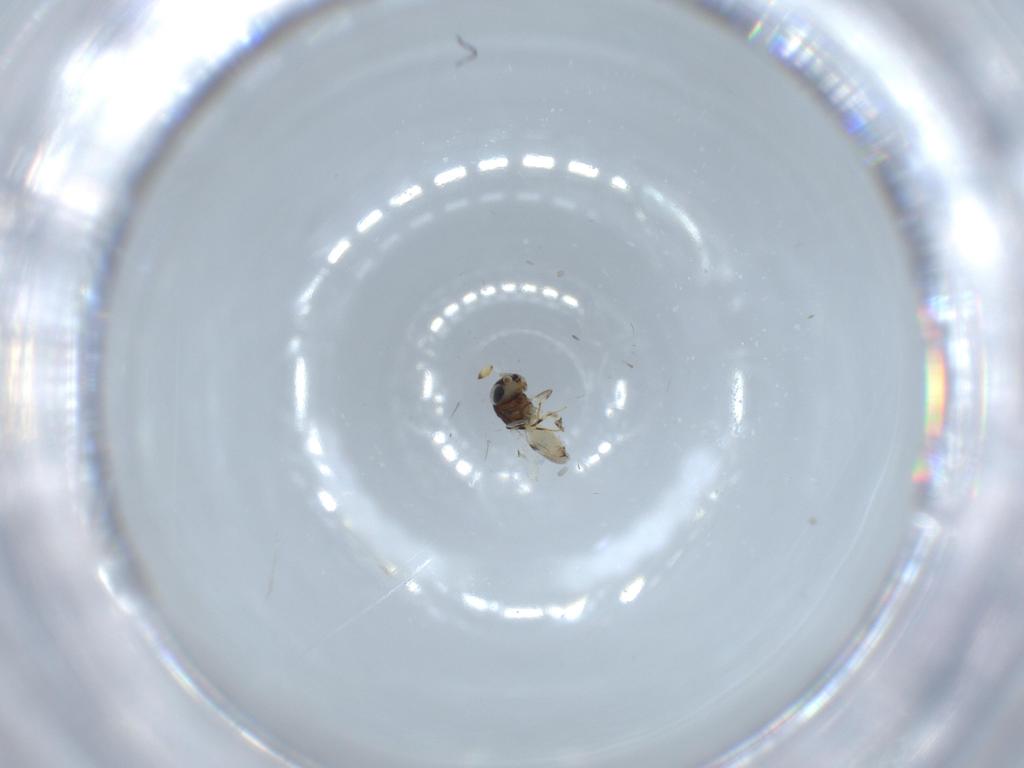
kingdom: Animalia
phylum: Arthropoda
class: Insecta
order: Hymenoptera
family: Scelionidae
